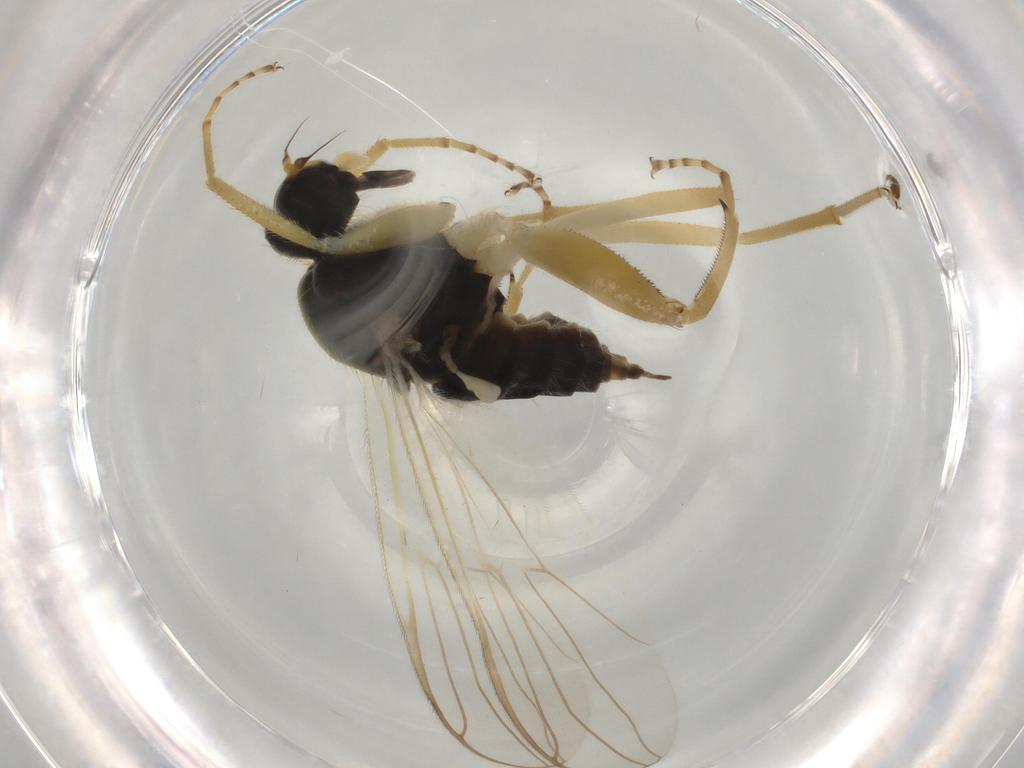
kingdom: Animalia
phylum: Arthropoda
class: Insecta
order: Diptera
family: Hybotidae
